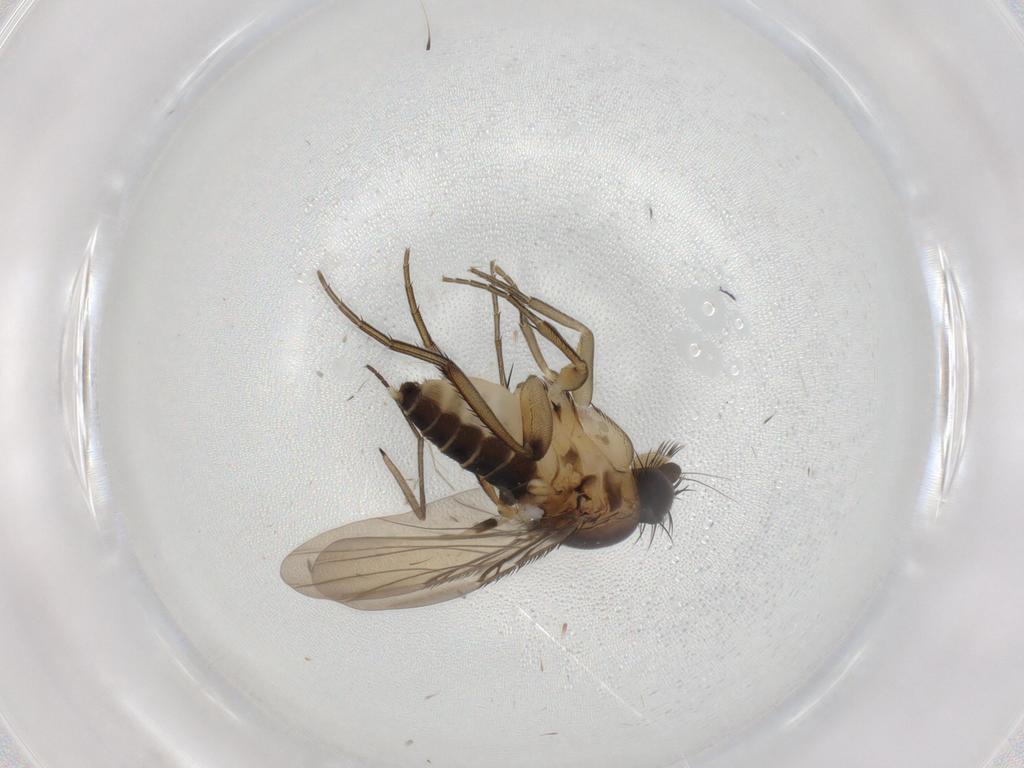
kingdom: Animalia
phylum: Arthropoda
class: Insecta
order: Diptera
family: Phoridae
